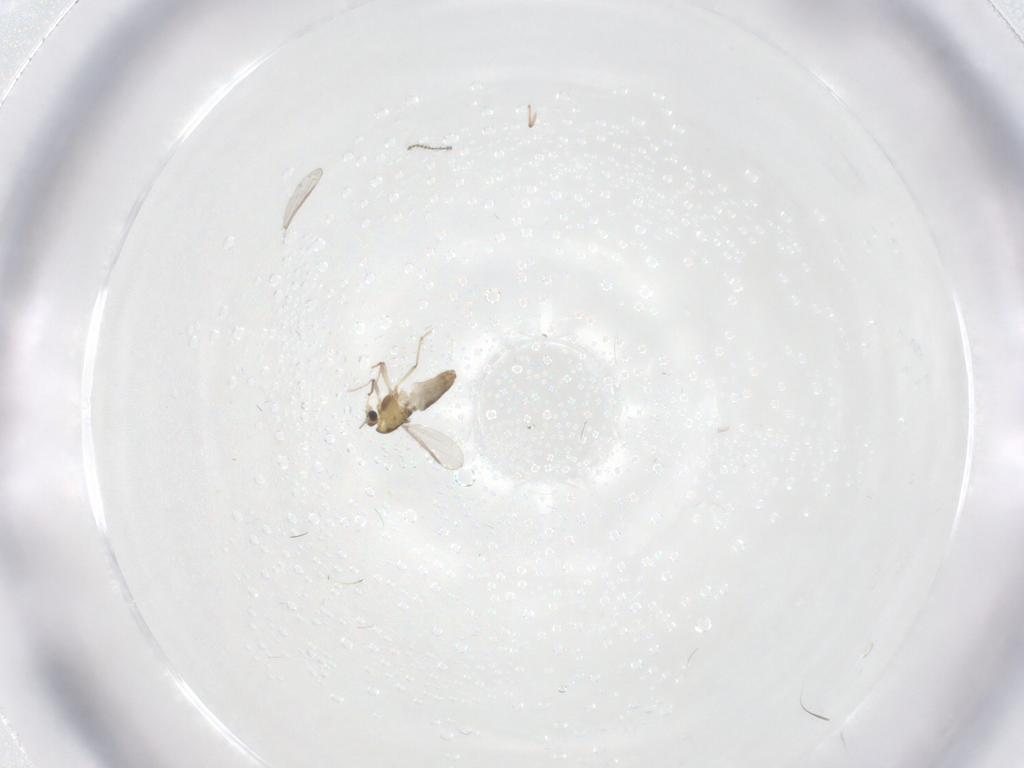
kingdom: Animalia
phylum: Arthropoda
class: Insecta
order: Diptera
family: Chironomidae
